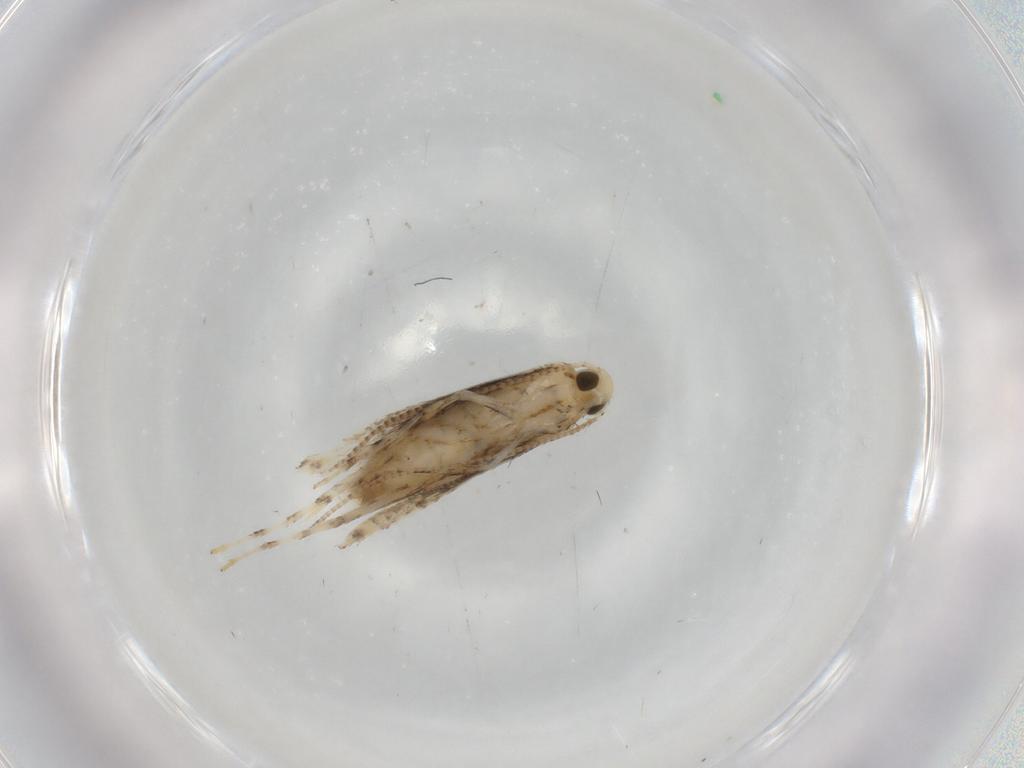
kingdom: Animalia
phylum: Arthropoda
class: Insecta
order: Lepidoptera
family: Gracillariidae
